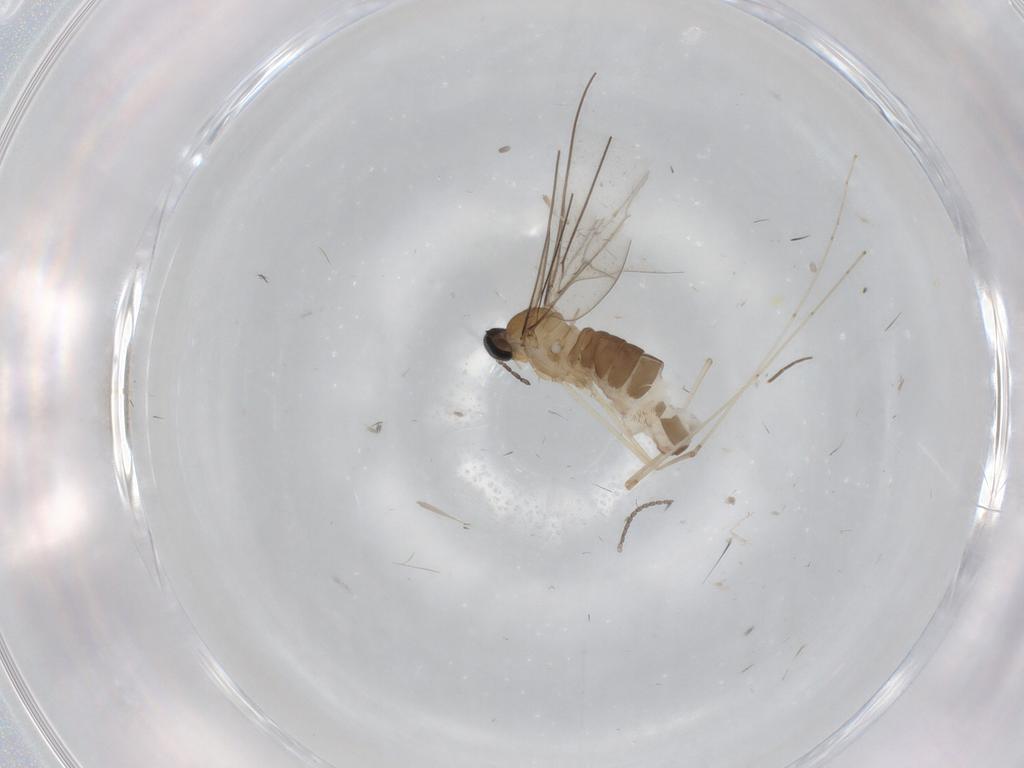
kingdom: Animalia
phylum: Arthropoda
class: Insecta
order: Diptera
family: Cecidomyiidae
